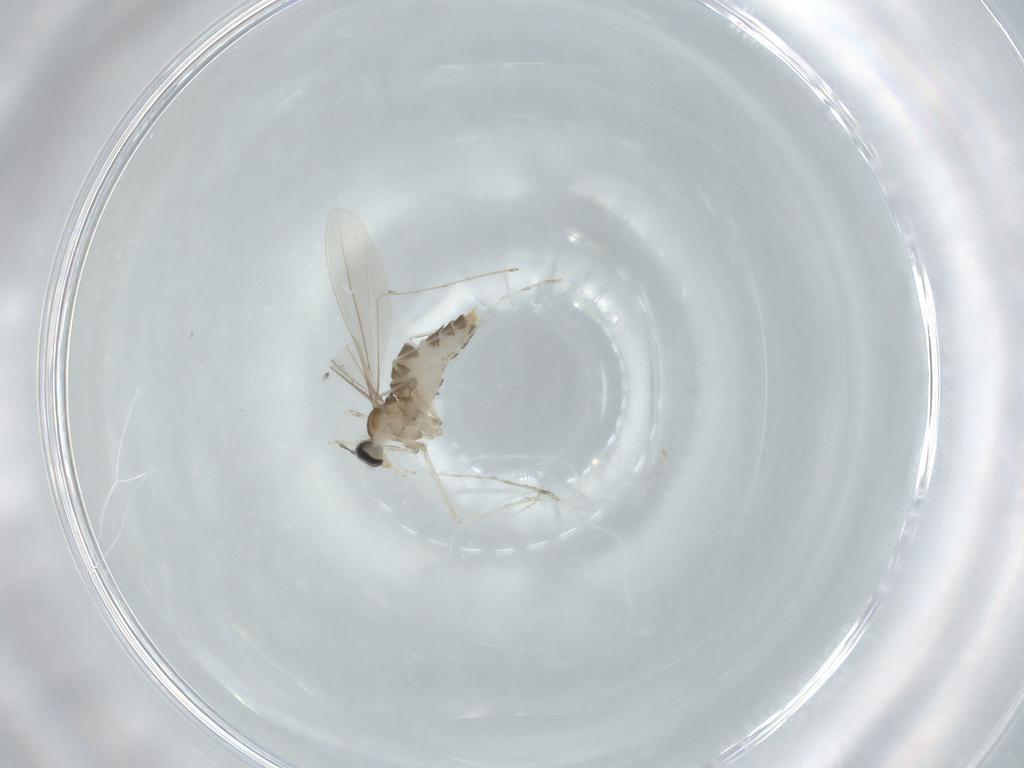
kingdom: Animalia
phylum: Arthropoda
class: Insecta
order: Diptera
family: Cecidomyiidae
